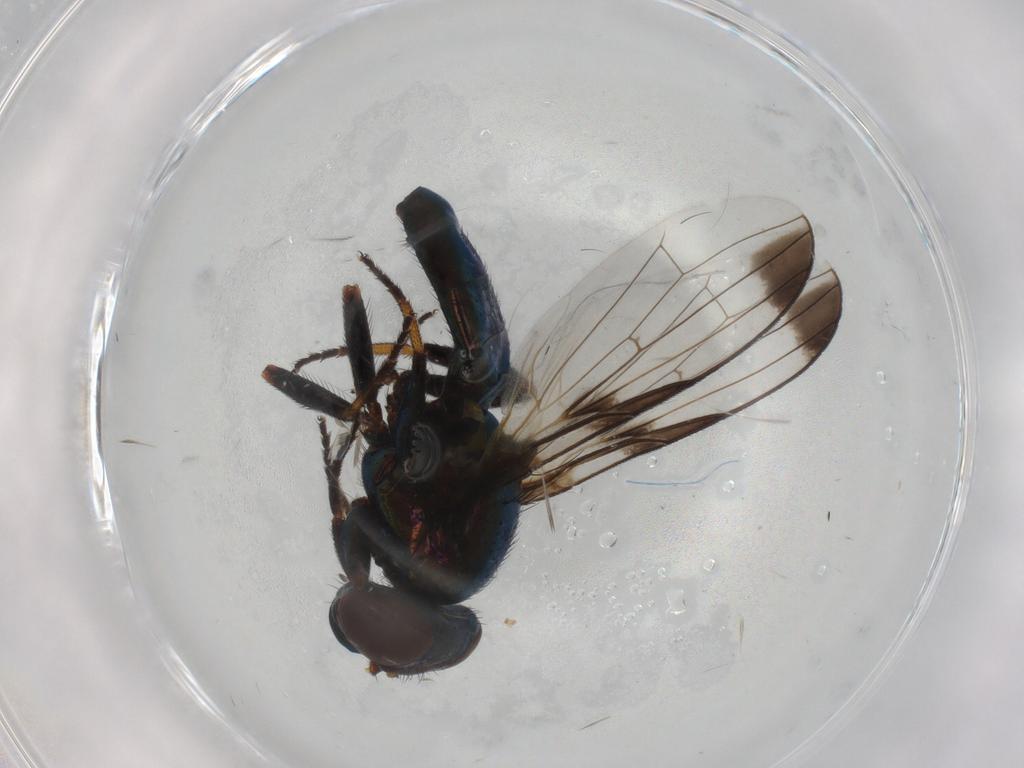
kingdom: Animalia
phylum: Arthropoda
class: Insecta
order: Diptera
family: Ulidiidae
